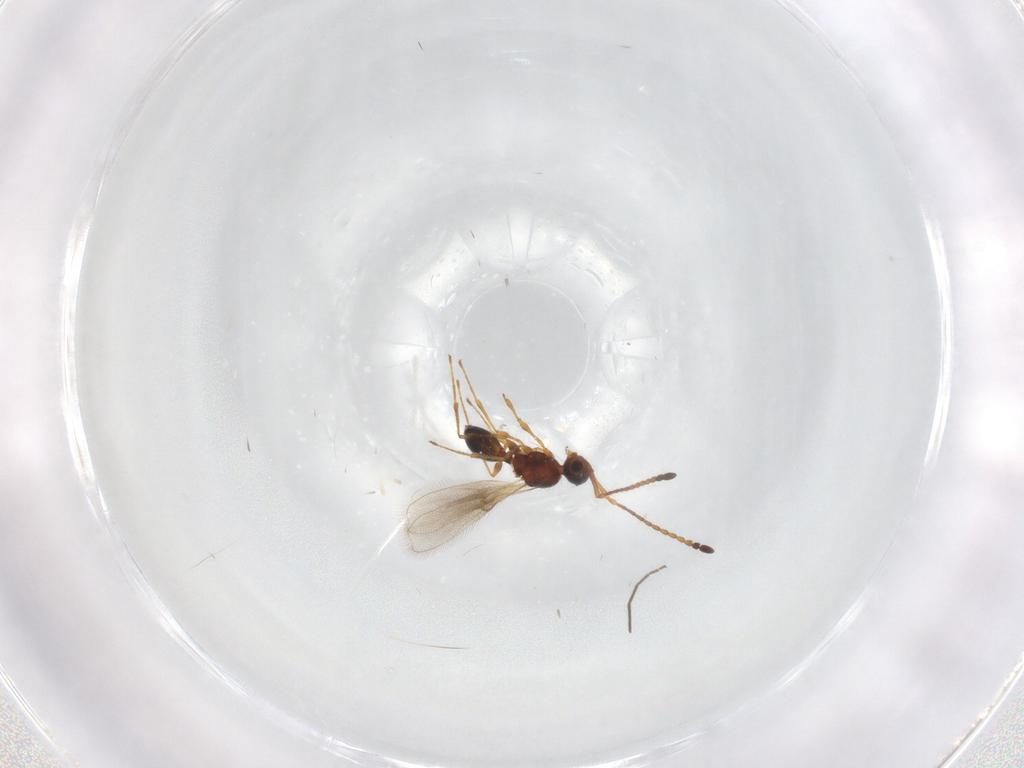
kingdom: Animalia
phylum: Arthropoda
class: Insecta
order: Hymenoptera
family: Diapriidae
